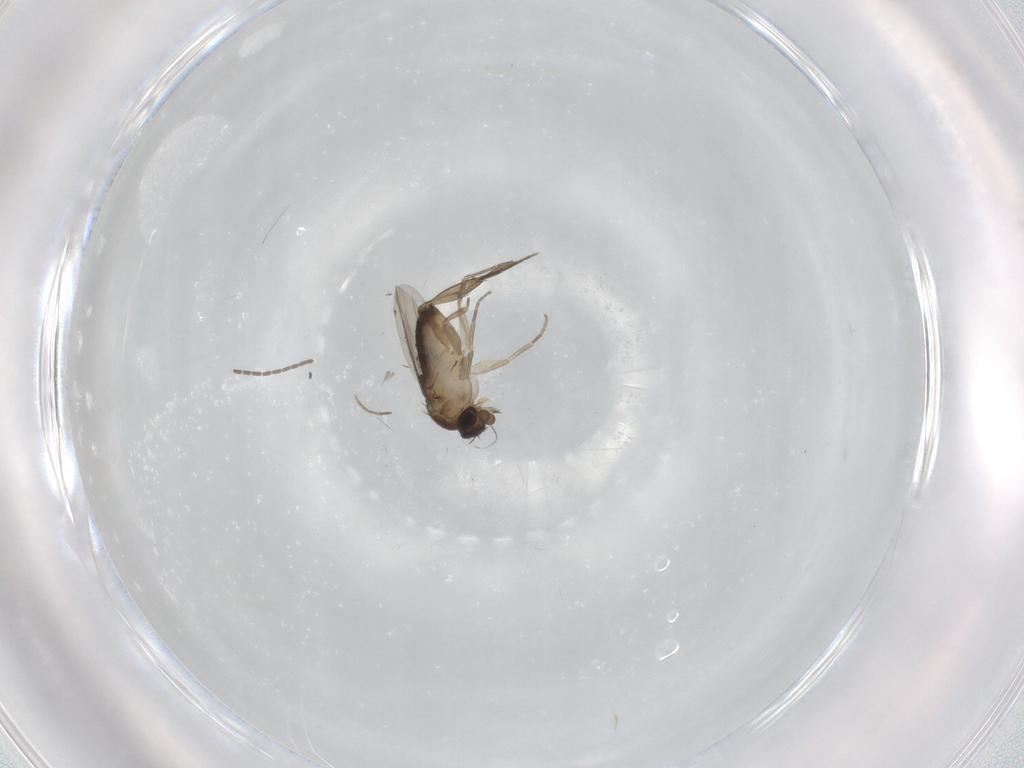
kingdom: Animalia
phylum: Arthropoda
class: Insecta
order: Diptera
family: Phoridae
